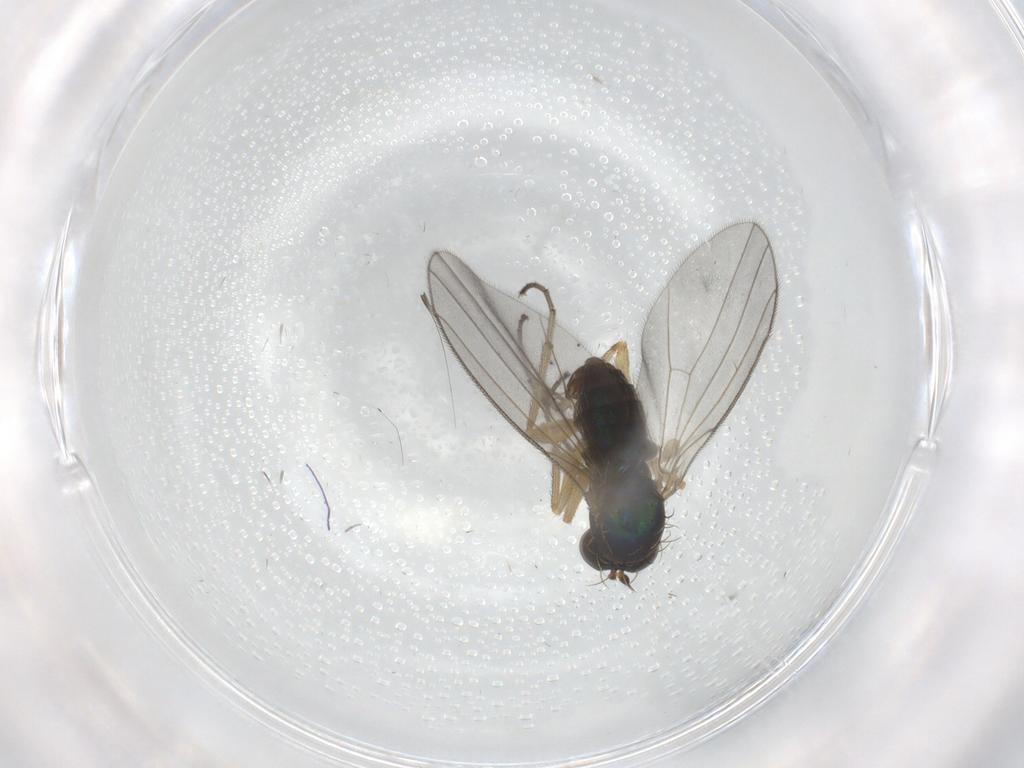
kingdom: Animalia
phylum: Arthropoda
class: Insecta
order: Diptera
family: Dolichopodidae
